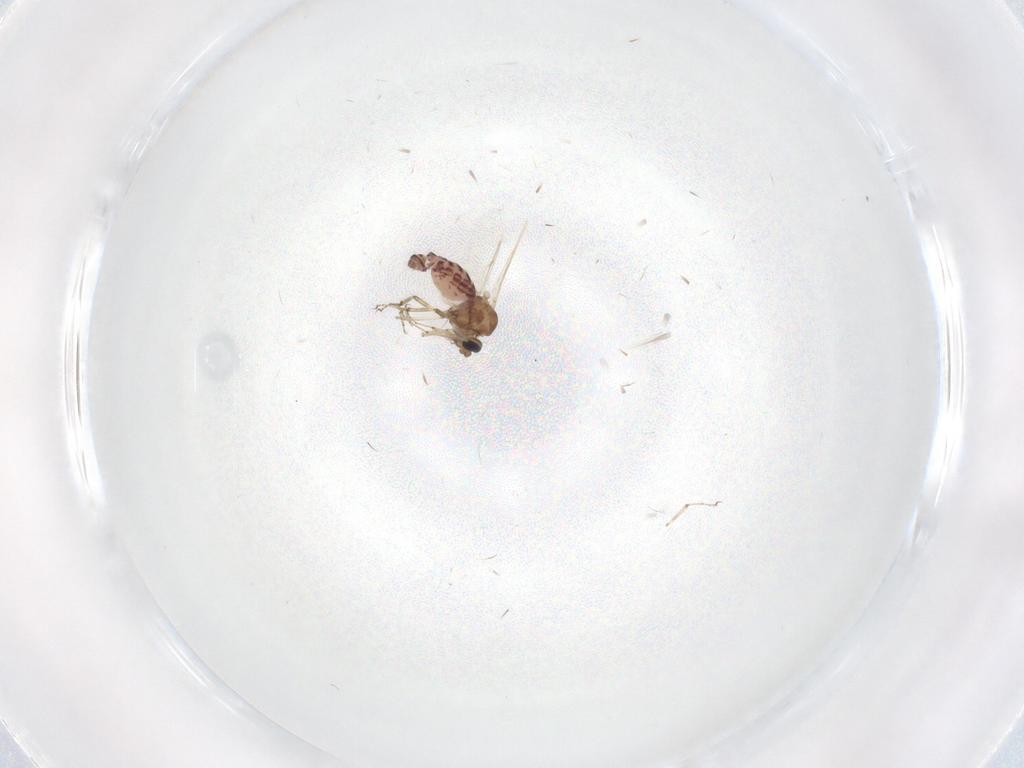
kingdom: Animalia
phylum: Arthropoda
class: Insecta
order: Diptera
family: Ceratopogonidae
